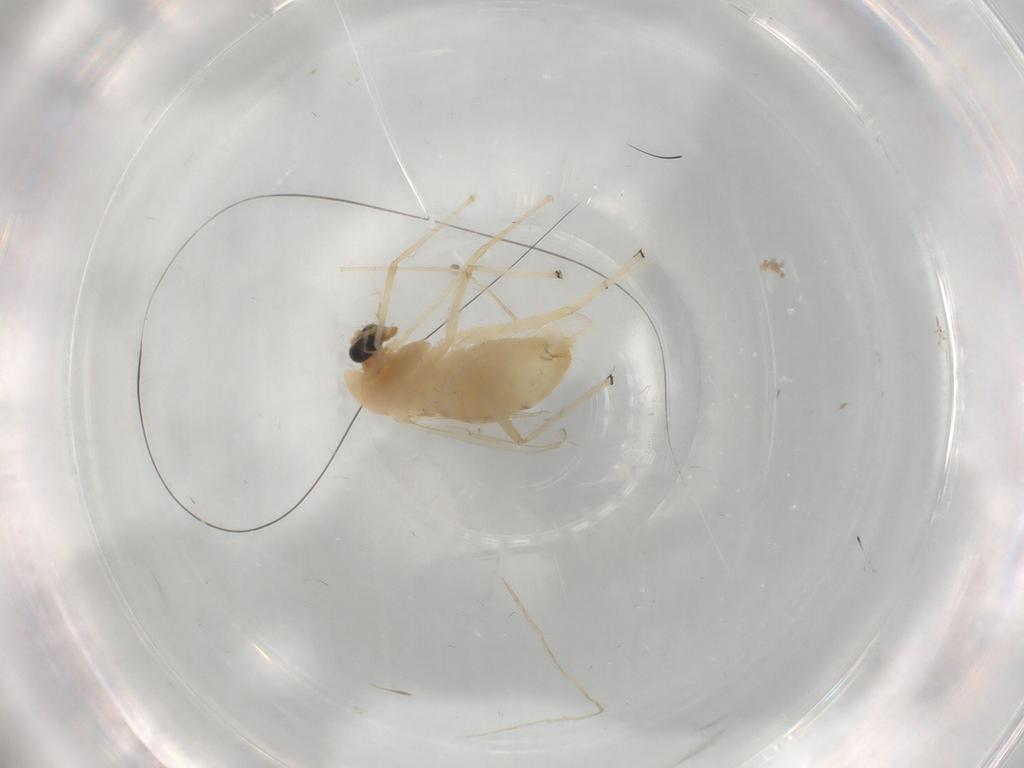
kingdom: Animalia
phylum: Arthropoda
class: Insecta
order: Diptera
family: Chironomidae
